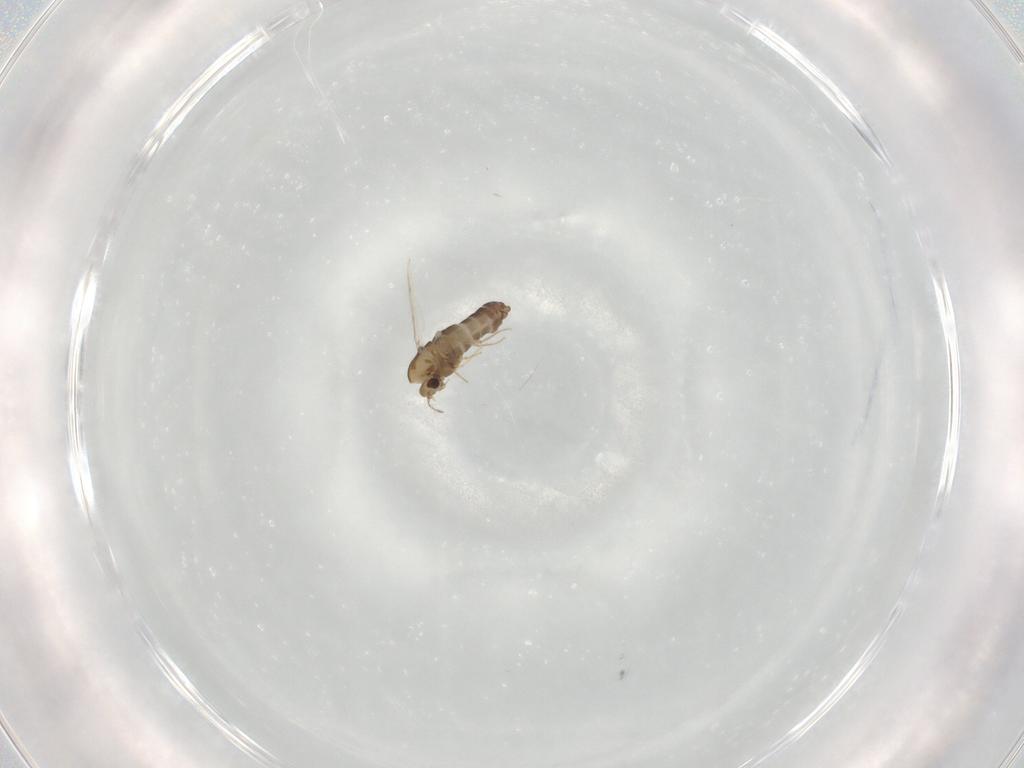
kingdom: Animalia
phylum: Arthropoda
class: Insecta
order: Diptera
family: Chironomidae
